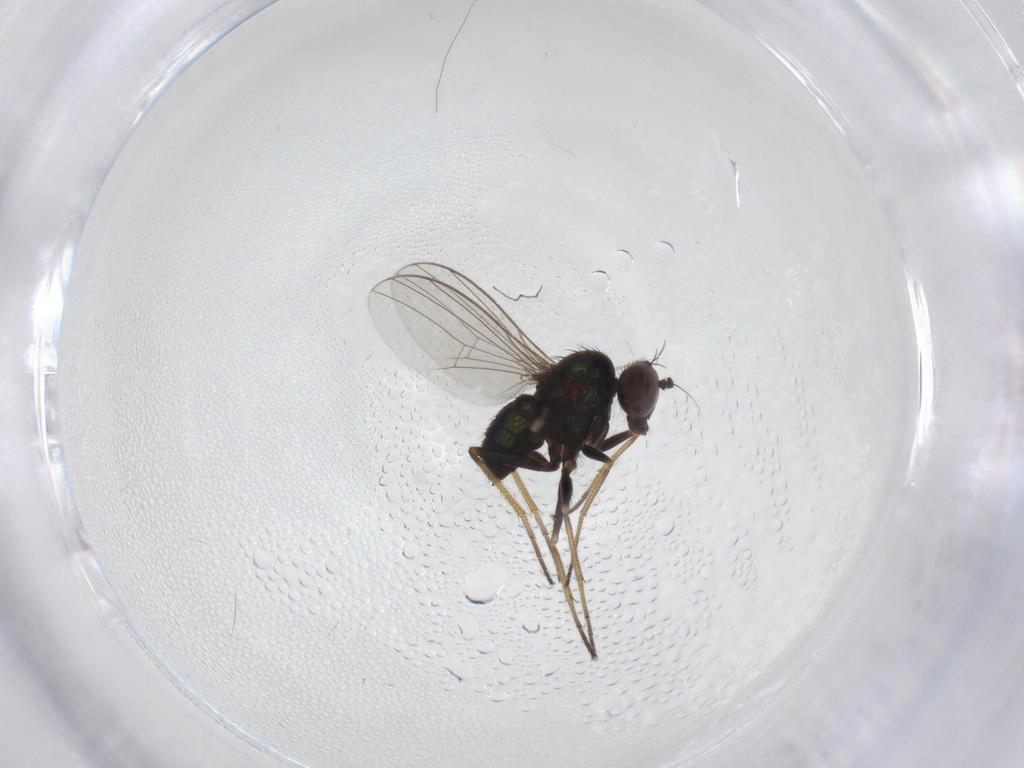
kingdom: Animalia
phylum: Arthropoda
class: Insecta
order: Diptera
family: Dolichopodidae
